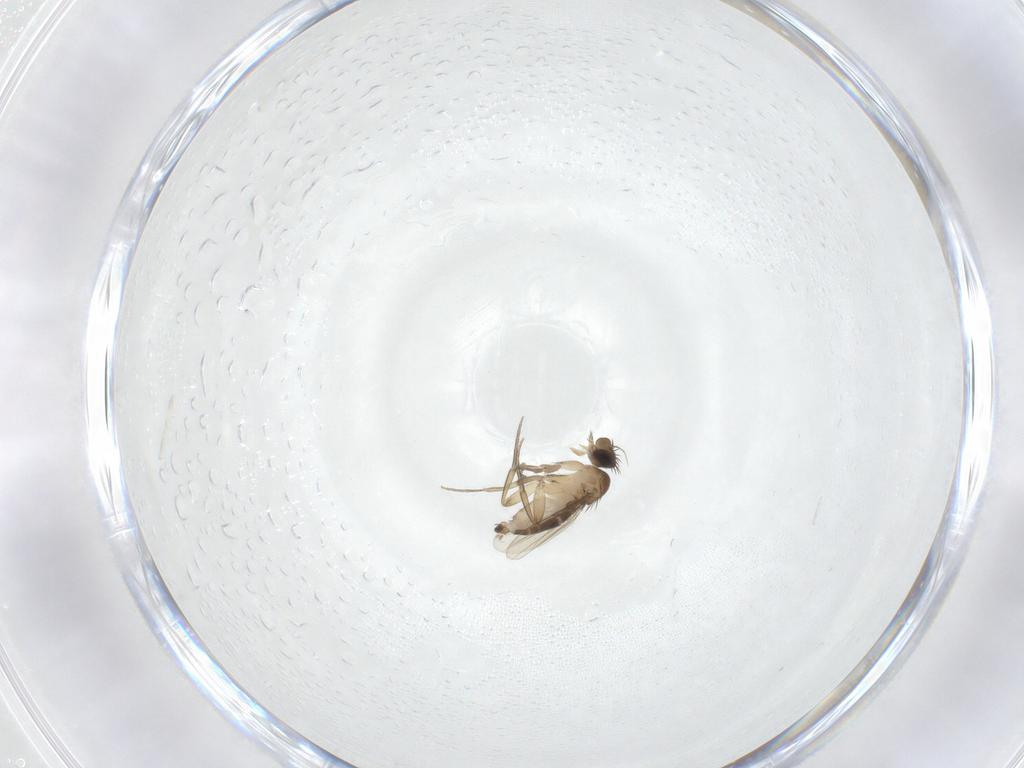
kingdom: Animalia
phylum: Arthropoda
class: Insecta
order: Diptera
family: Phoridae
